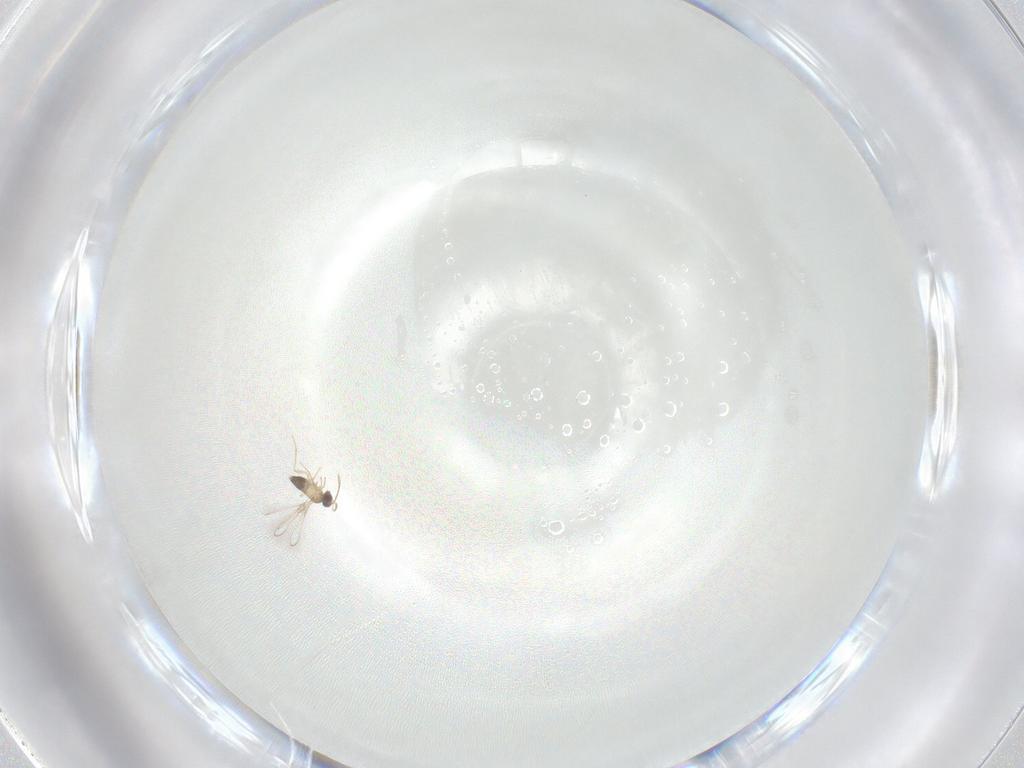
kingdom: Animalia
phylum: Arthropoda
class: Insecta
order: Hymenoptera
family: Mymaridae
